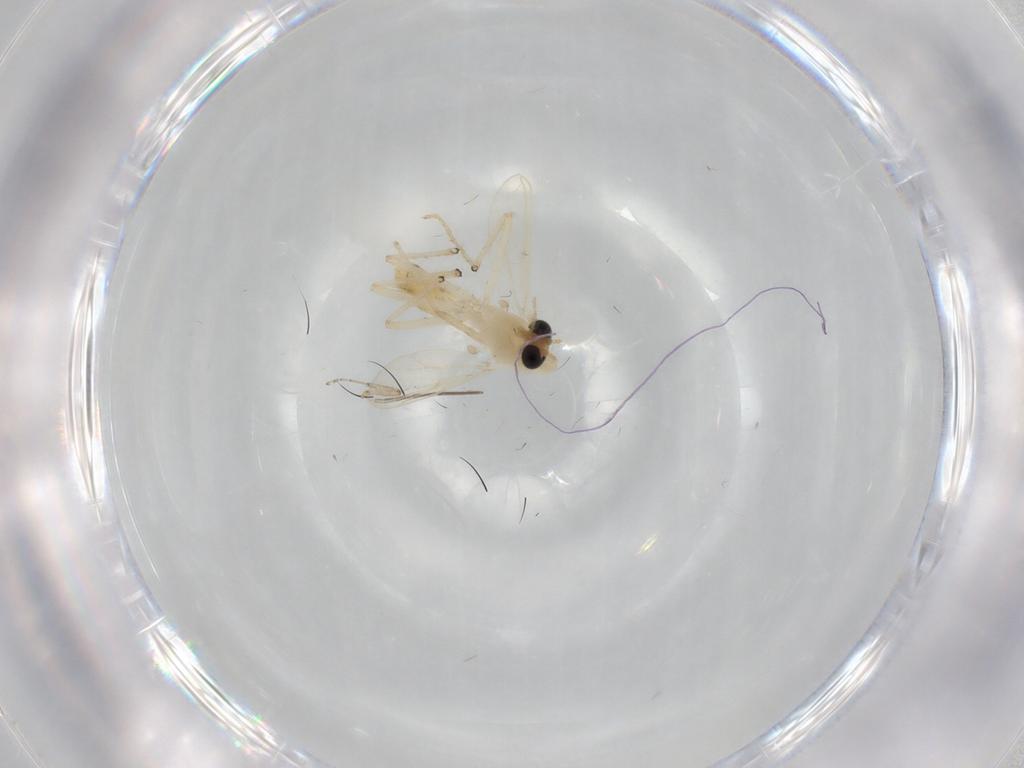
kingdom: Animalia
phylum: Arthropoda
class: Insecta
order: Diptera
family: Chironomidae
